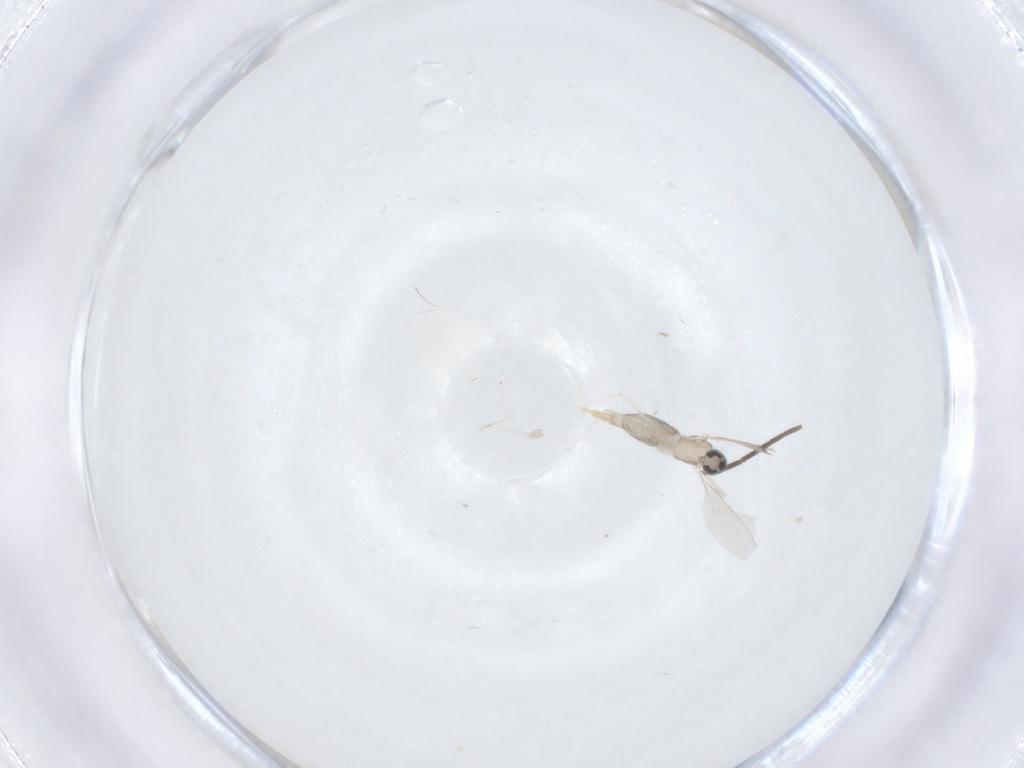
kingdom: Animalia
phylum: Arthropoda
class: Insecta
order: Diptera
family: Cecidomyiidae
